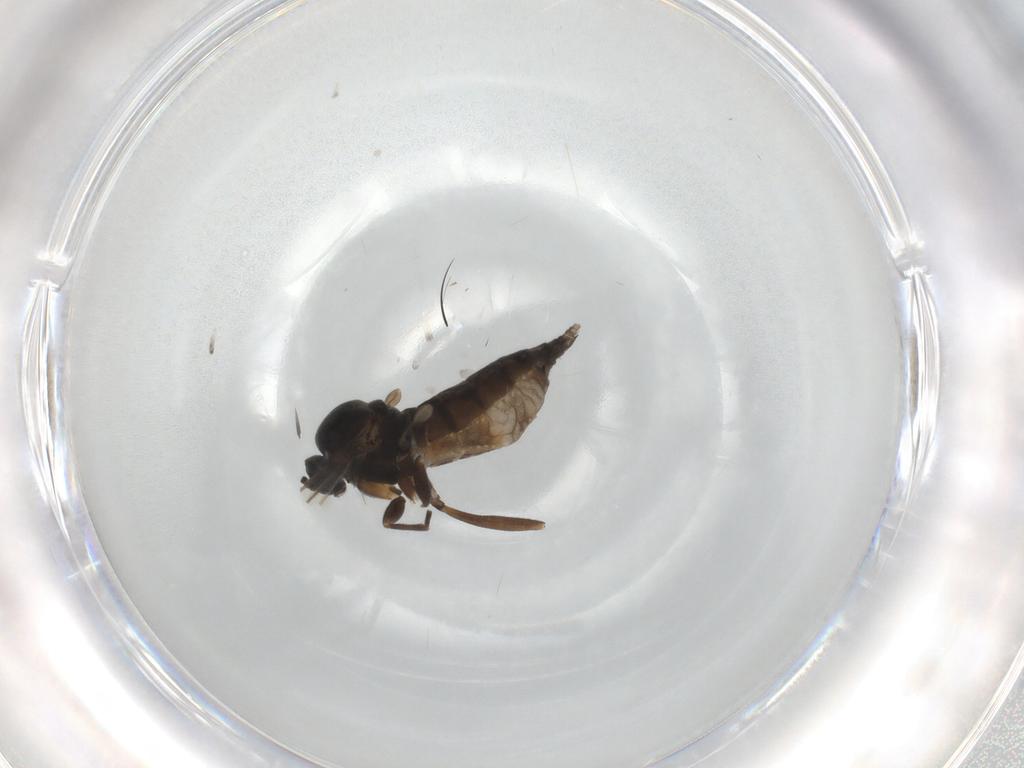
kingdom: Animalia
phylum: Arthropoda
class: Insecta
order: Diptera
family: Sciaridae
